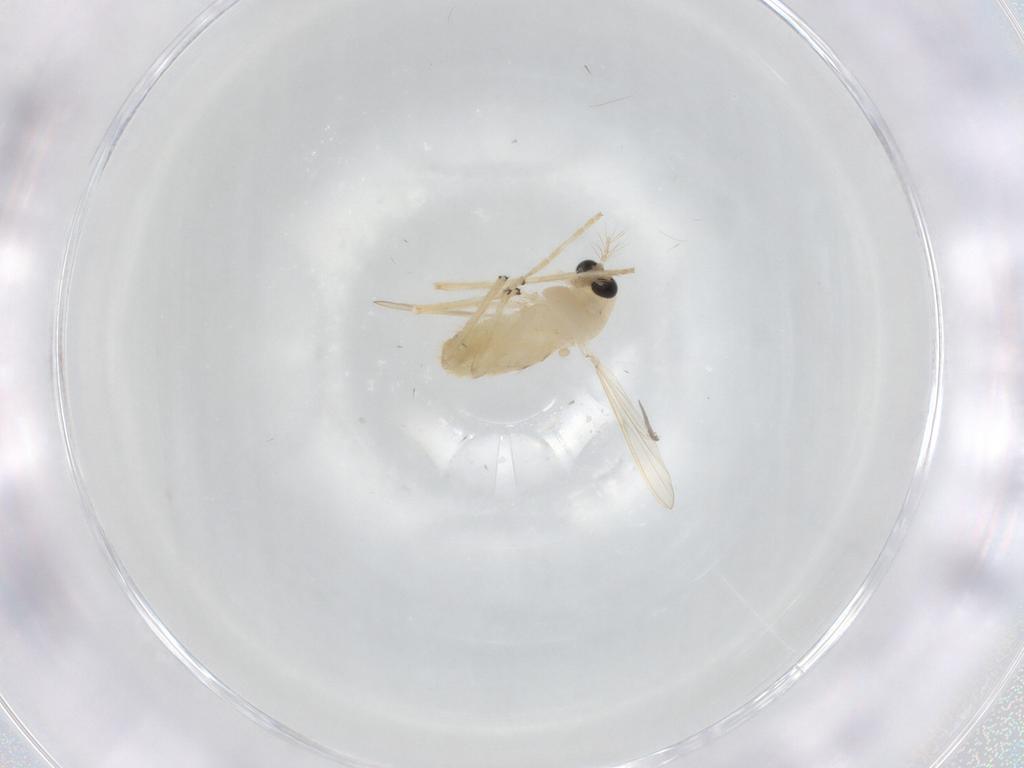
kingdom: Animalia
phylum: Arthropoda
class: Insecta
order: Diptera
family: Chironomidae
